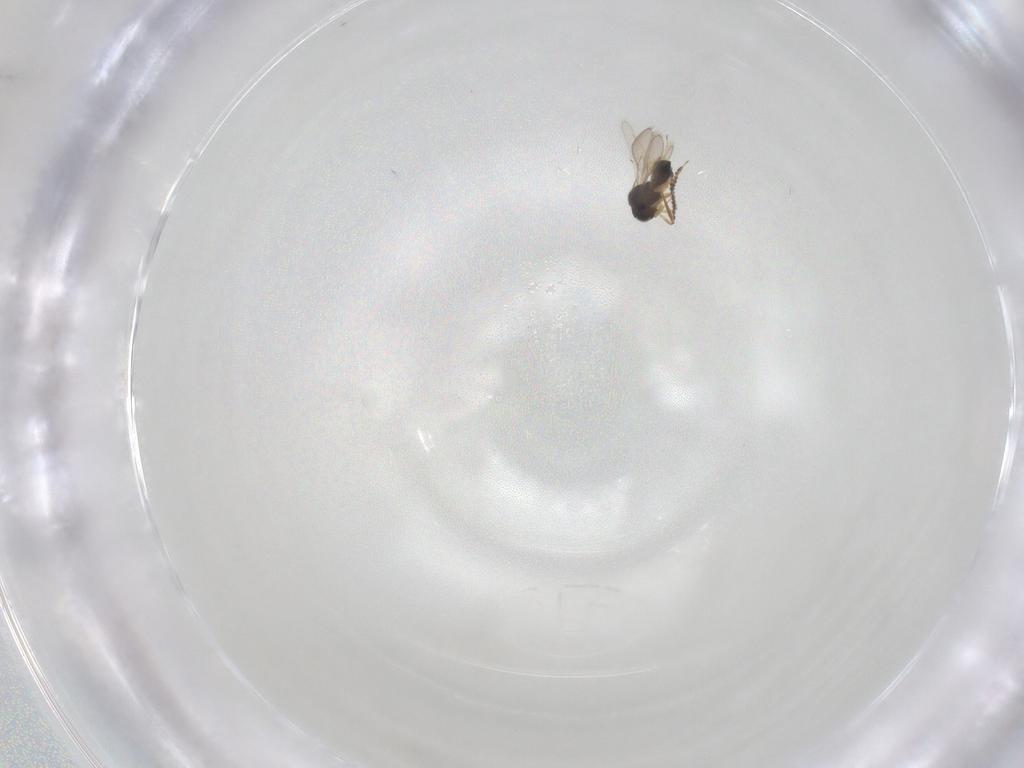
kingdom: Animalia
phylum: Arthropoda
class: Insecta
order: Hymenoptera
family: Scelionidae
